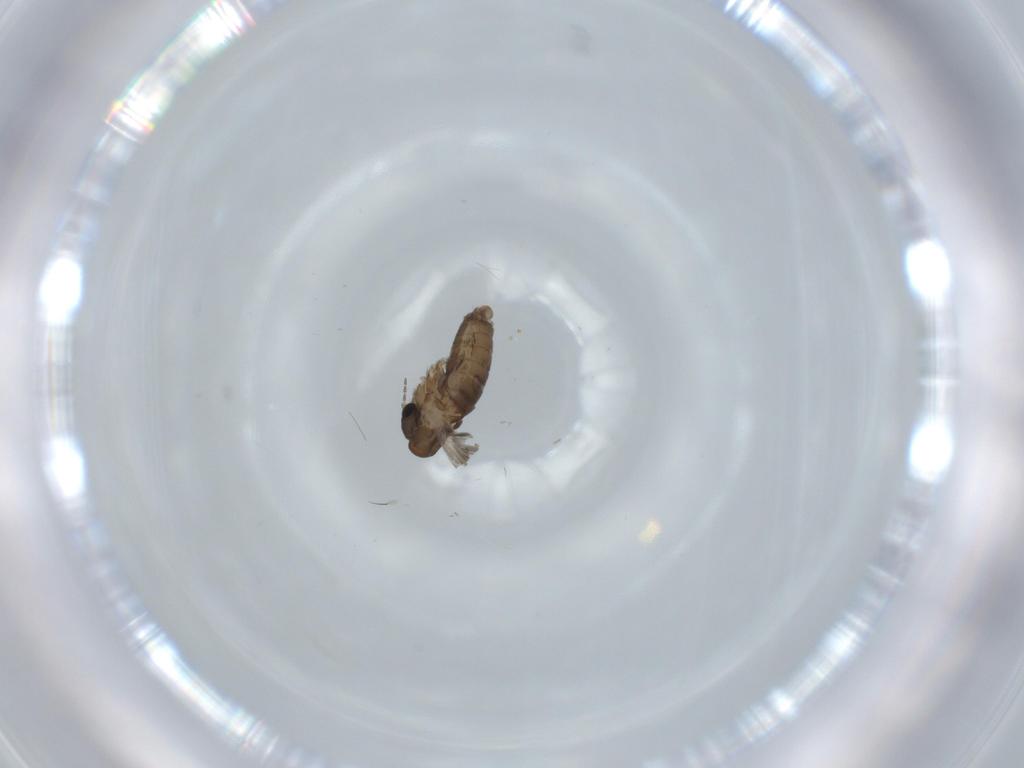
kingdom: Animalia
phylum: Arthropoda
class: Insecta
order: Diptera
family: Psychodidae
